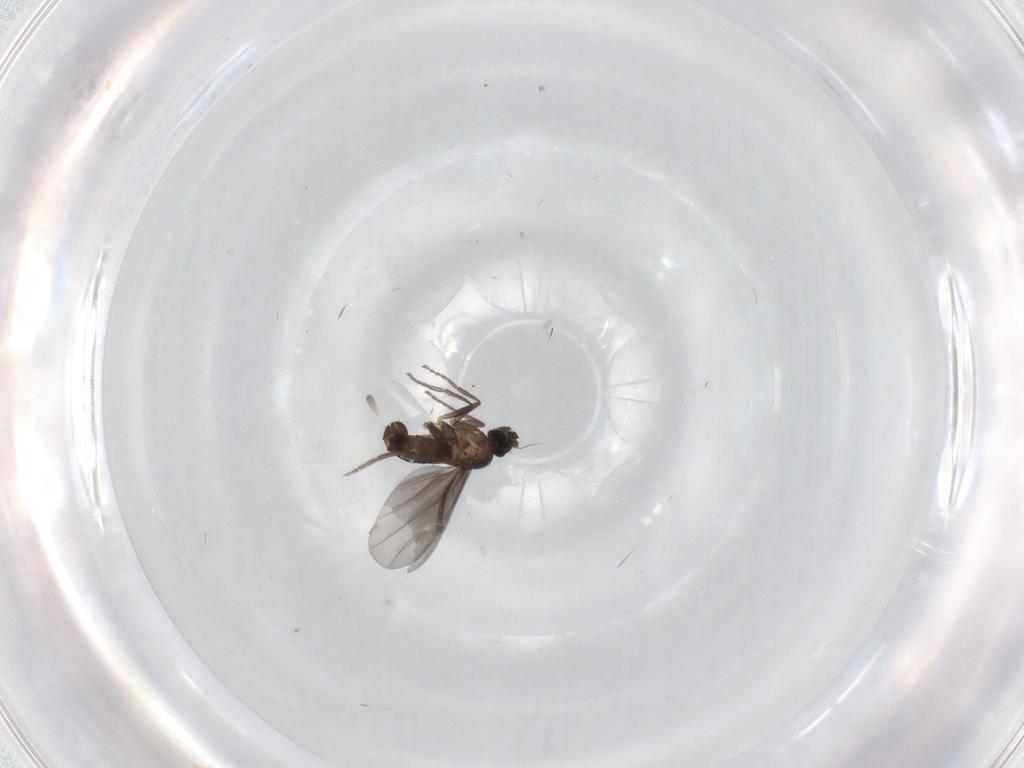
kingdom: Animalia
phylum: Arthropoda
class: Insecta
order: Diptera
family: Phoridae
